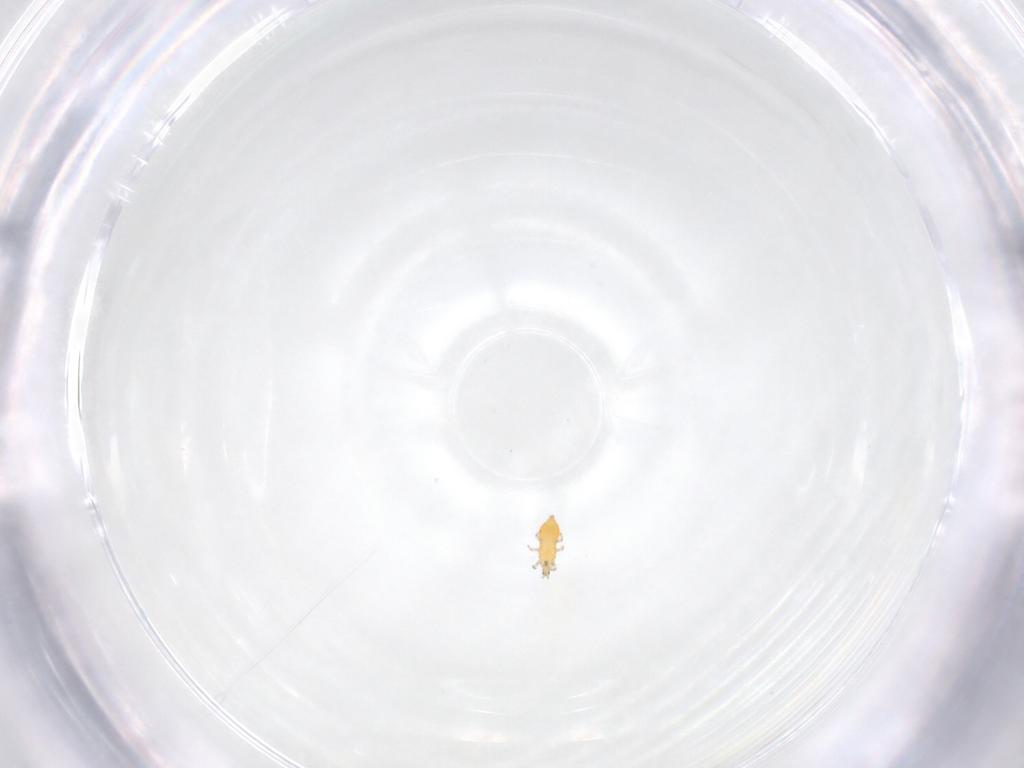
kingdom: Animalia
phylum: Arthropoda
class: Insecta
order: Thysanoptera
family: Thripidae
